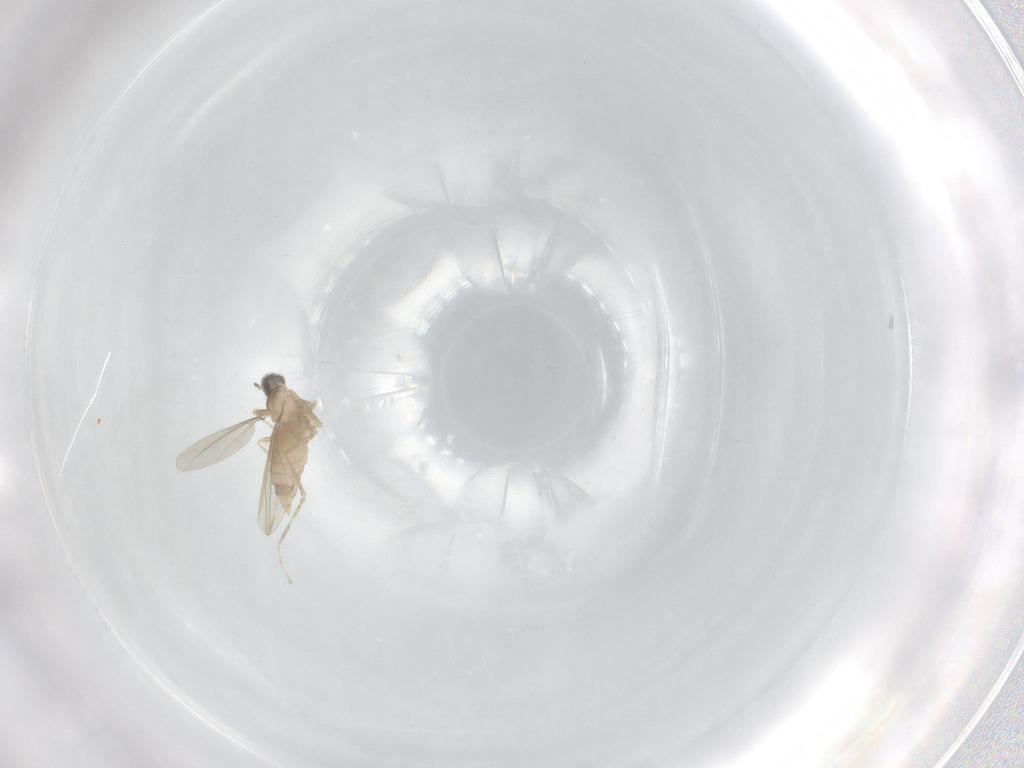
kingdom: Animalia
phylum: Arthropoda
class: Insecta
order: Diptera
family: Cecidomyiidae
